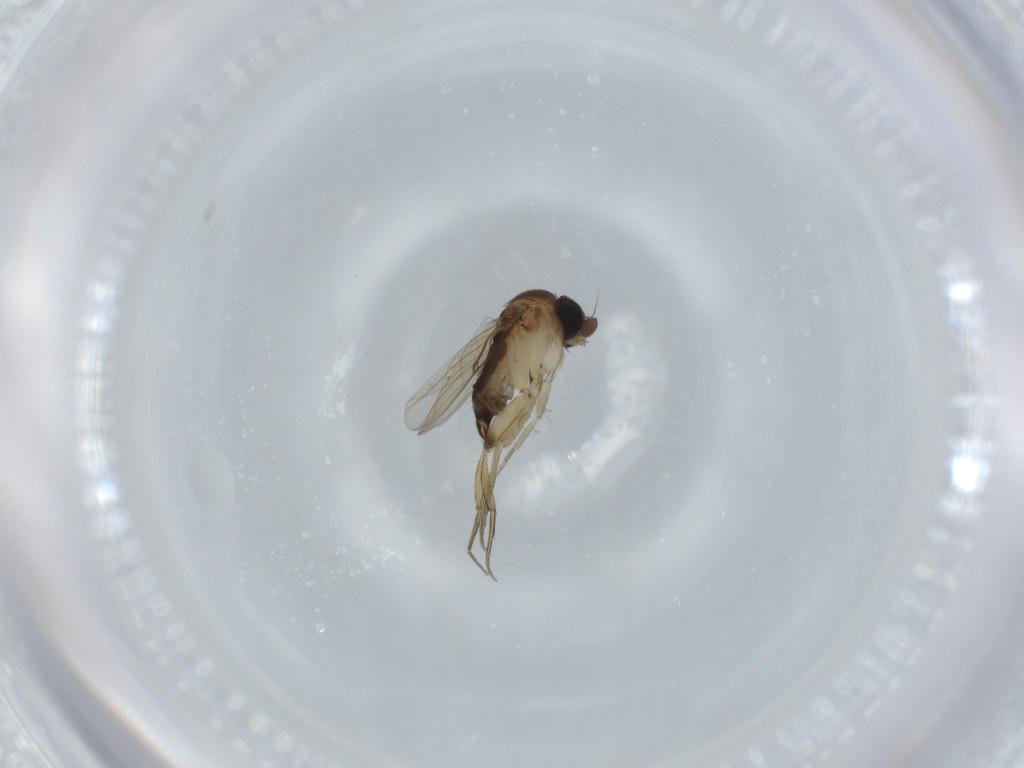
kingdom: Animalia
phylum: Arthropoda
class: Insecta
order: Diptera
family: Phoridae
